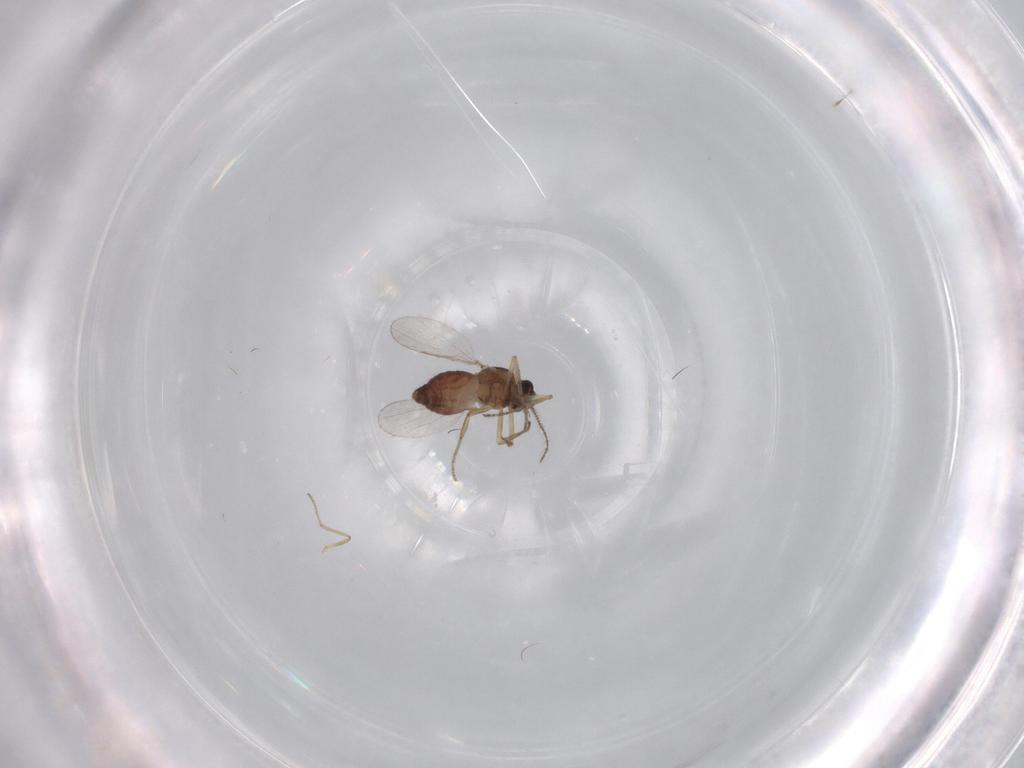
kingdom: Animalia
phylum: Arthropoda
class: Insecta
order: Diptera
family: Ceratopogonidae
